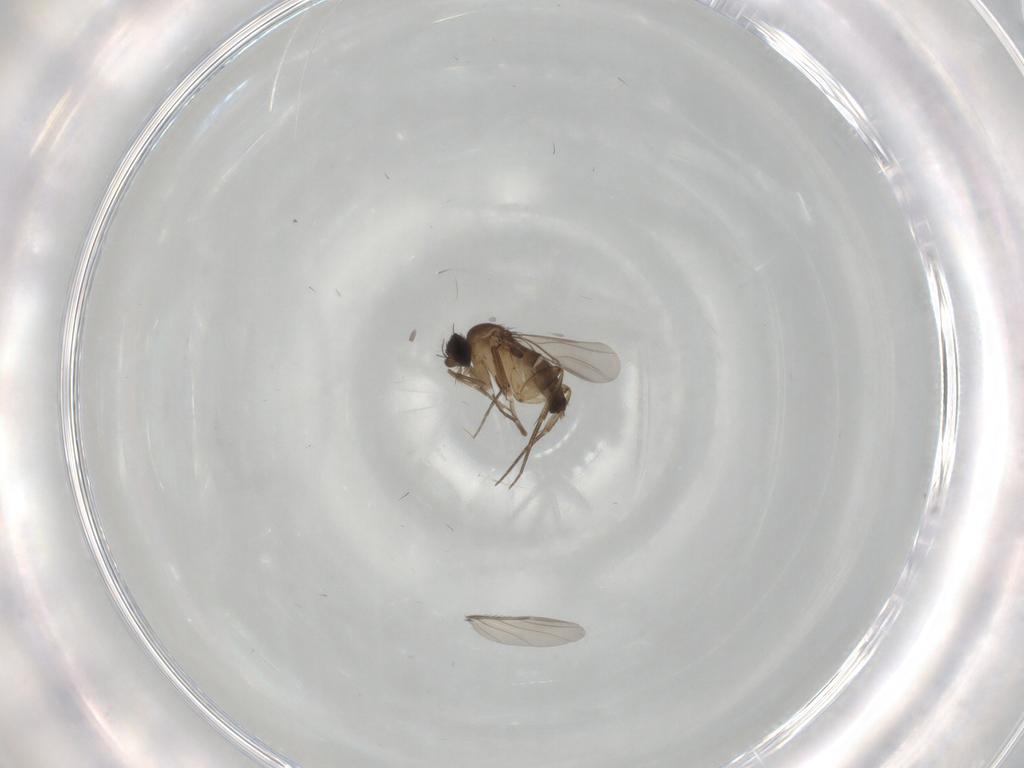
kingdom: Animalia
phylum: Arthropoda
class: Insecta
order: Diptera
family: Phoridae
